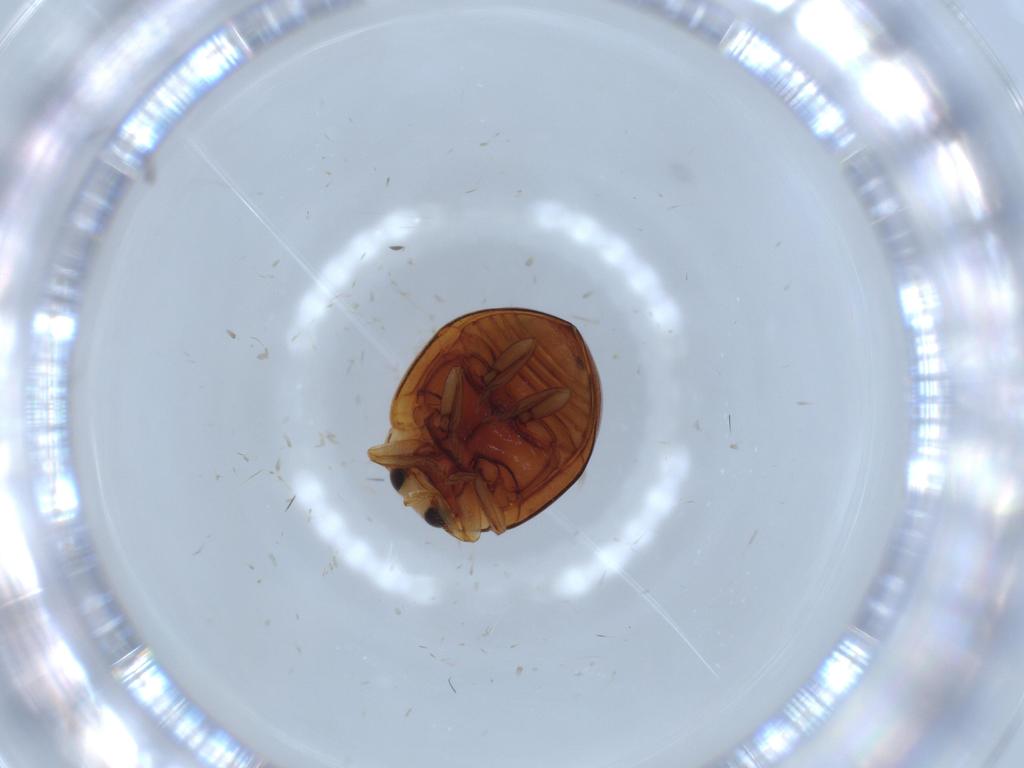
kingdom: Animalia
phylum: Arthropoda
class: Insecta
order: Coleoptera
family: Coccinellidae
